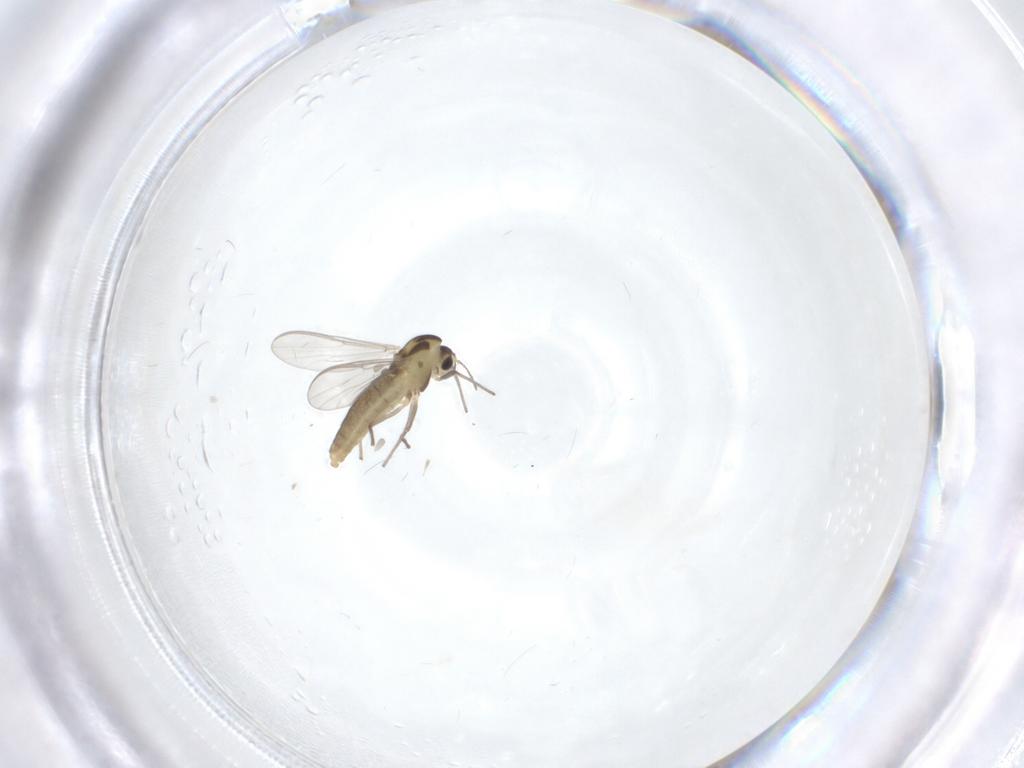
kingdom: Animalia
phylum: Arthropoda
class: Insecta
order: Diptera
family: Chironomidae
